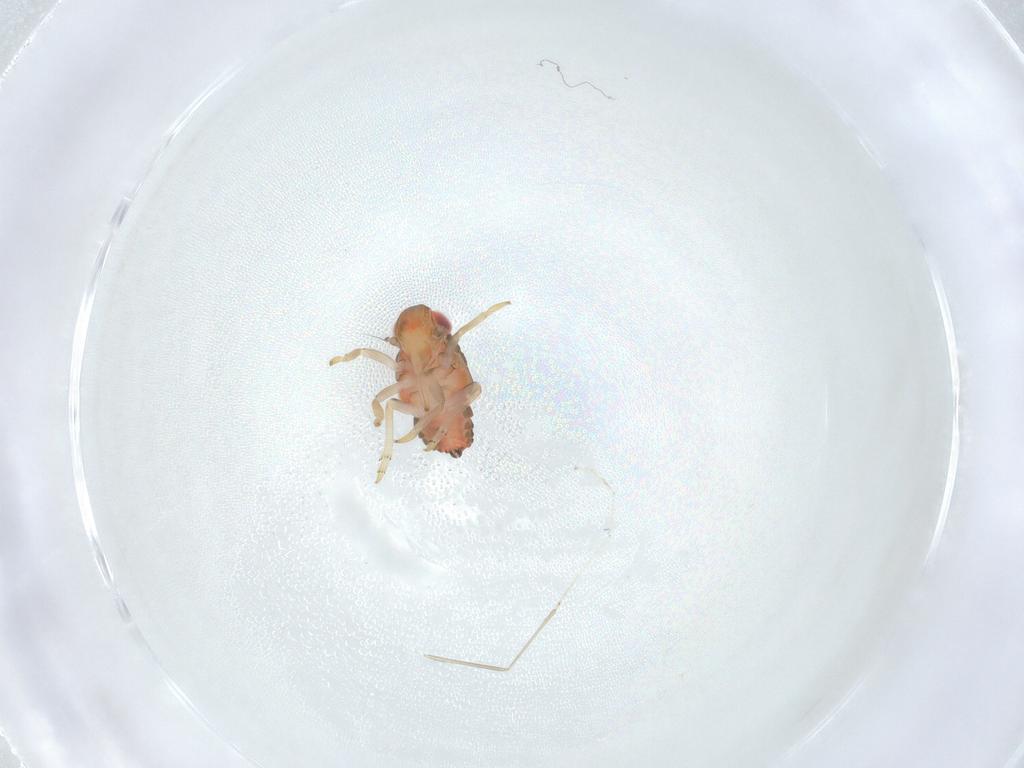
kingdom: Animalia
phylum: Arthropoda
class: Insecta
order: Hemiptera
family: Issidae
